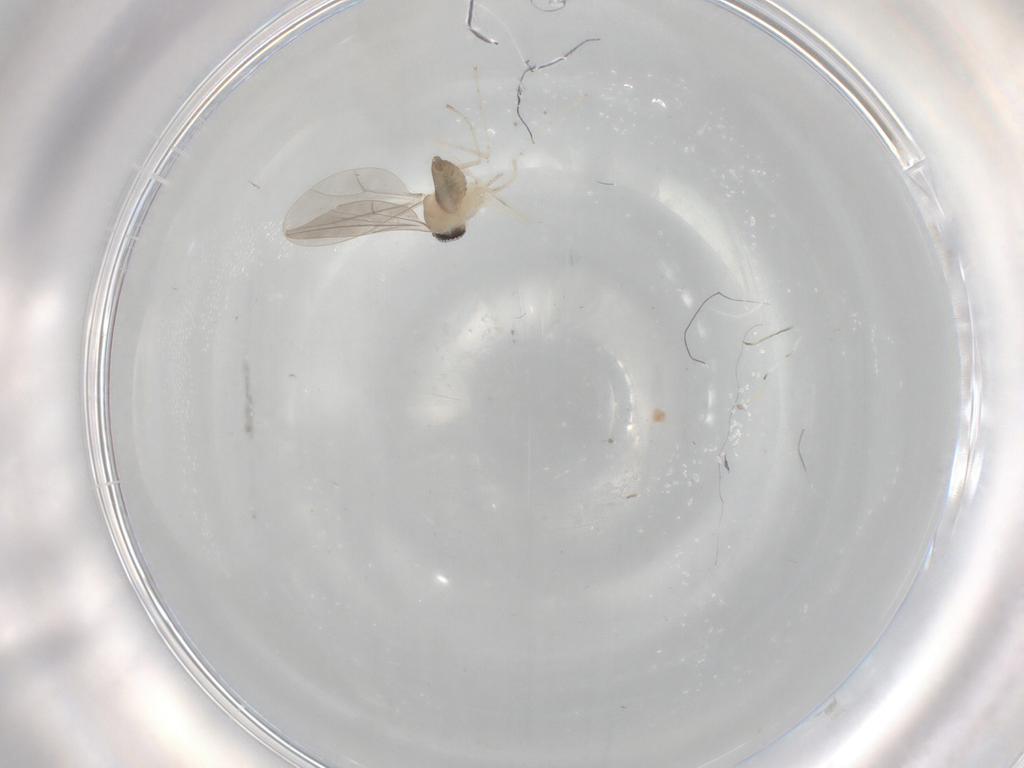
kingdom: Animalia
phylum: Arthropoda
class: Insecta
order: Diptera
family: Cecidomyiidae
